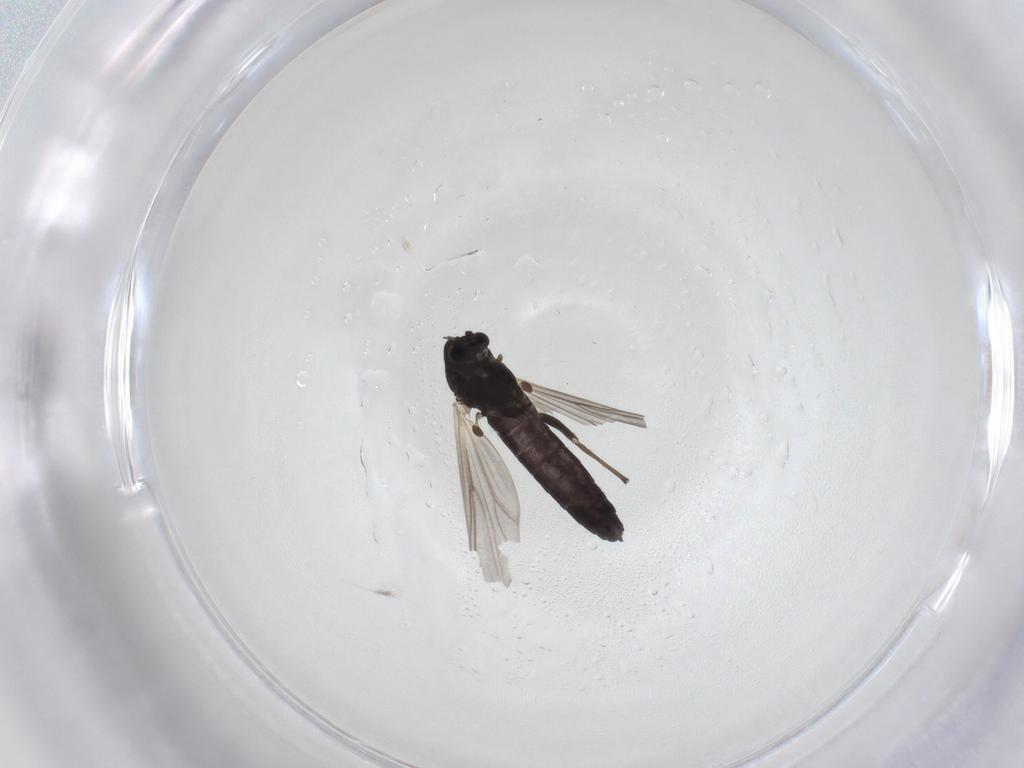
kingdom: Animalia
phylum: Arthropoda
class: Insecta
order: Diptera
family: Chironomidae
